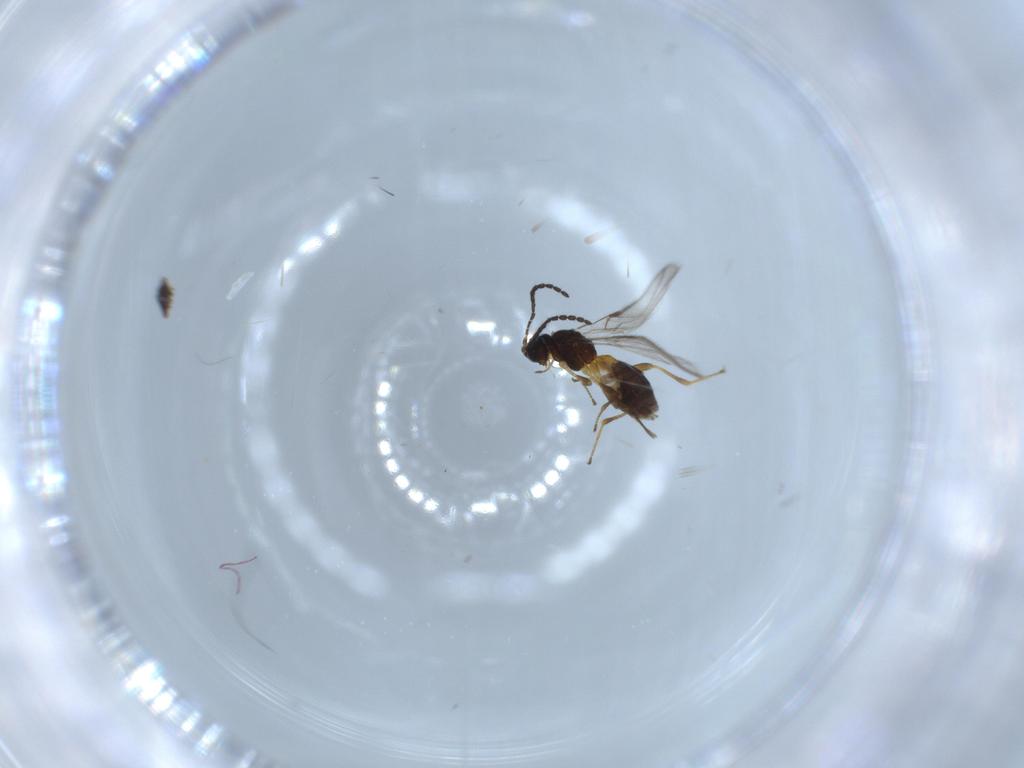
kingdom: Animalia
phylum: Arthropoda
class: Insecta
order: Hymenoptera
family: Braconidae
